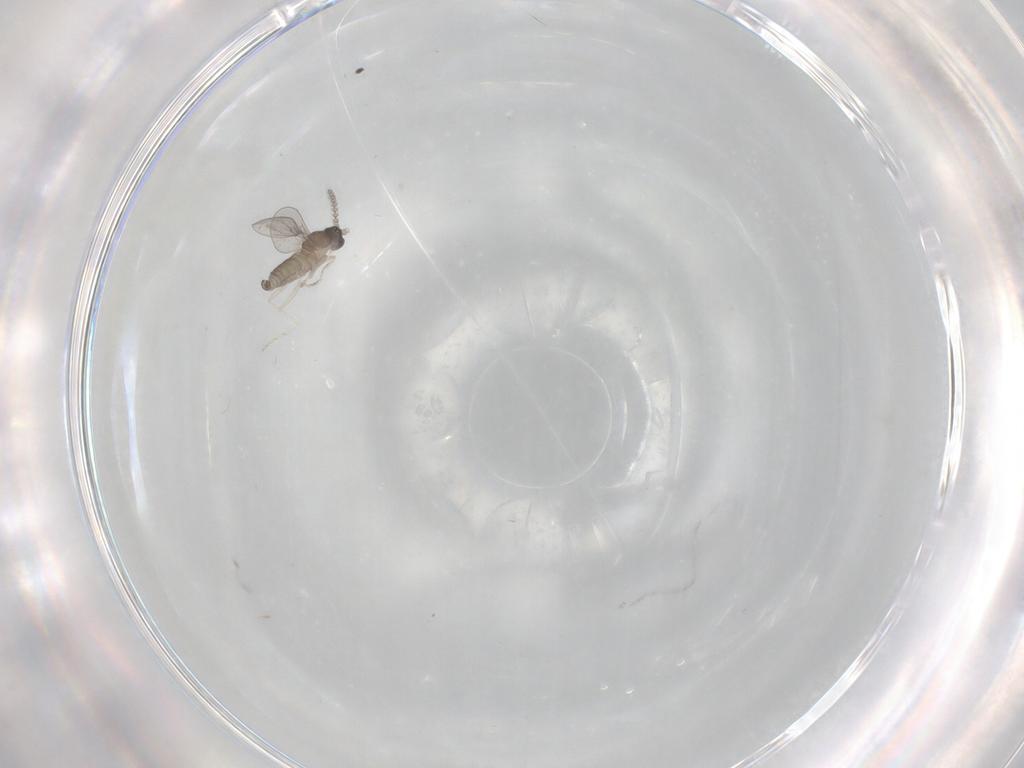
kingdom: Animalia
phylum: Arthropoda
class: Insecta
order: Diptera
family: Cecidomyiidae
